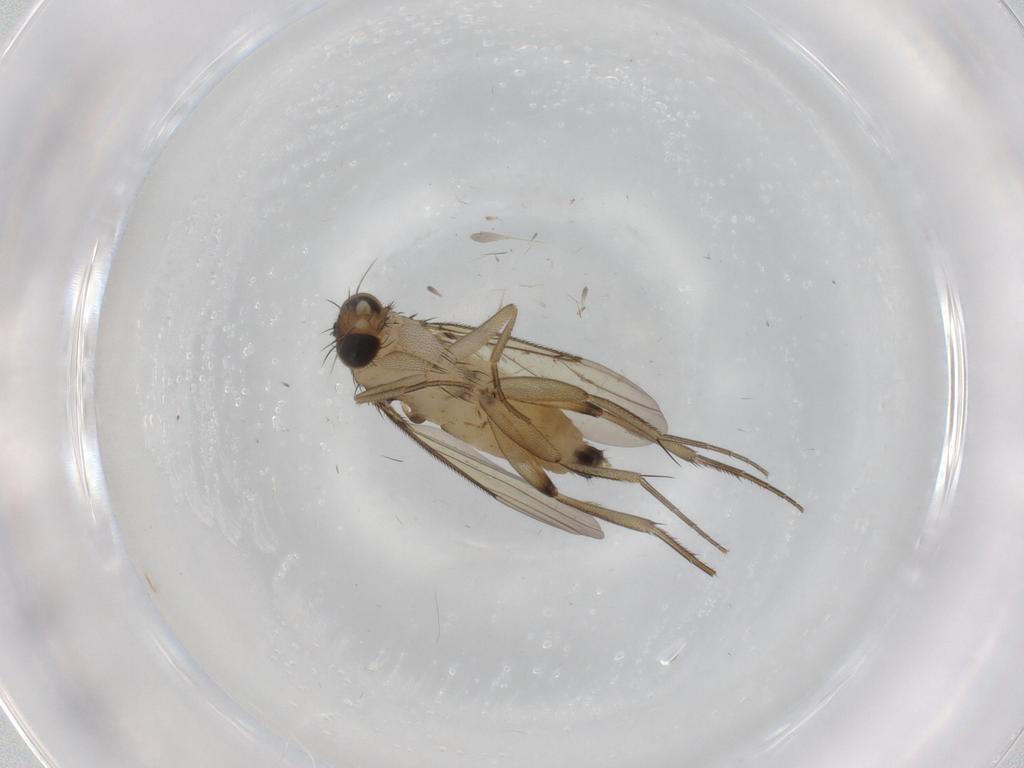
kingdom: Animalia
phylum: Arthropoda
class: Insecta
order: Diptera
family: Phoridae
